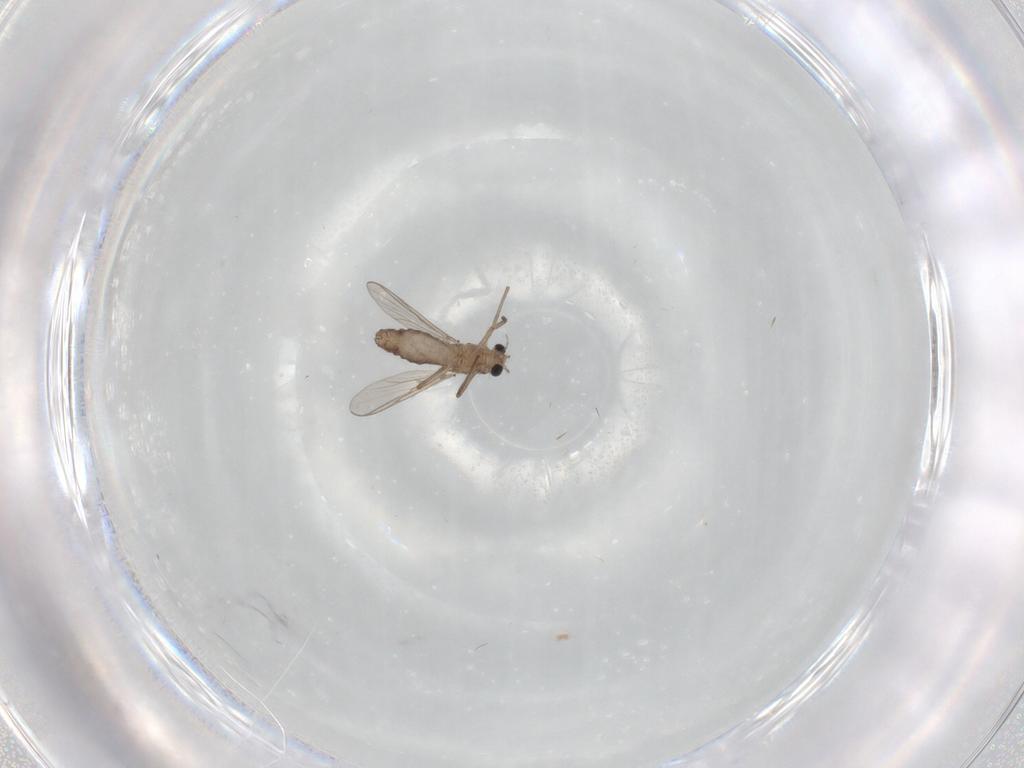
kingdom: Animalia
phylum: Arthropoda
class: Insecta
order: Diptera
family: Chironomidae
